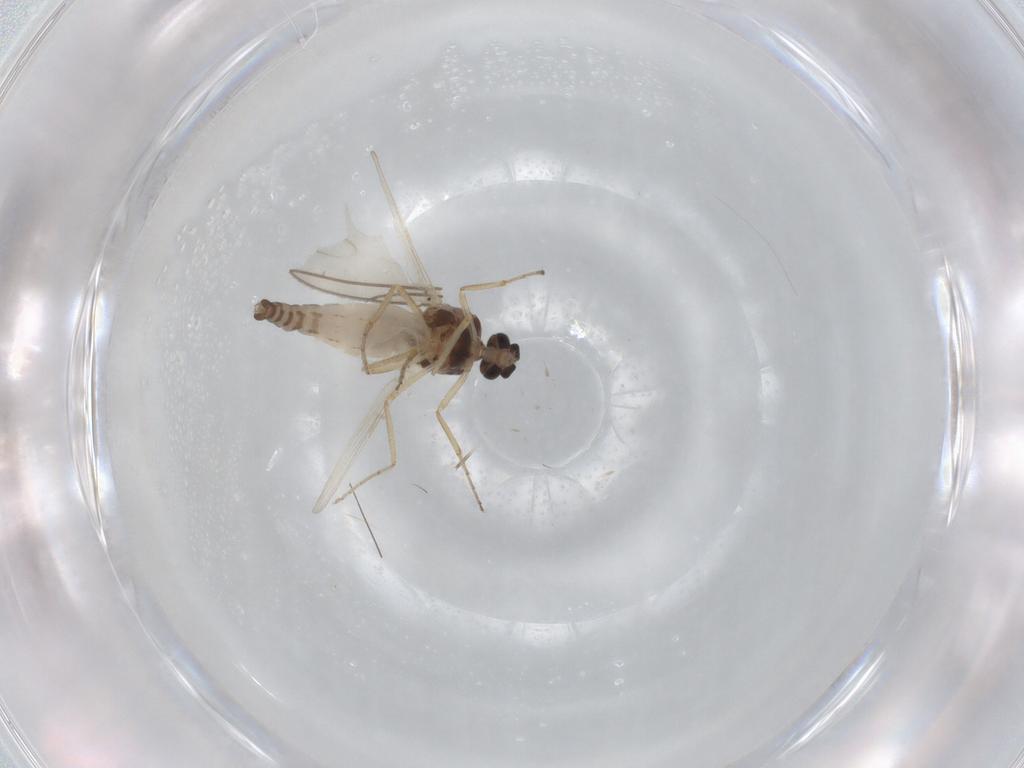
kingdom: Animalia
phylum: Arthropoda
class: Insecta
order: Diptera
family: Ceratopogonidae
